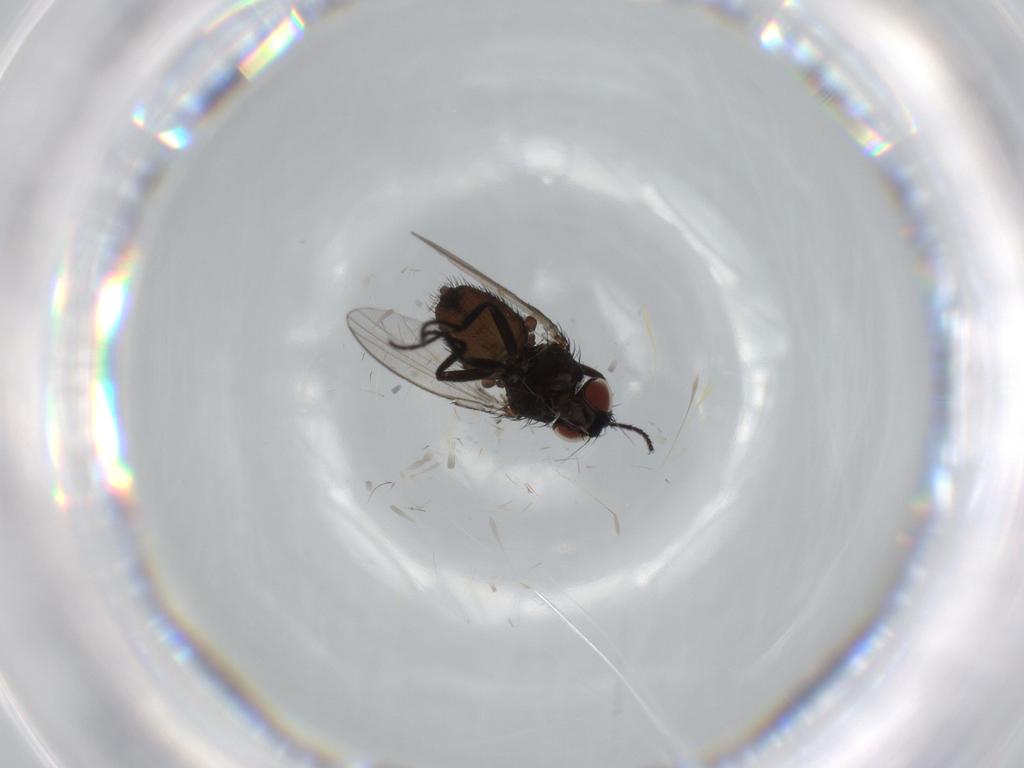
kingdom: Animalia
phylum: Arthropoda
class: Insecta
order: Diptera
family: Milichiidae
